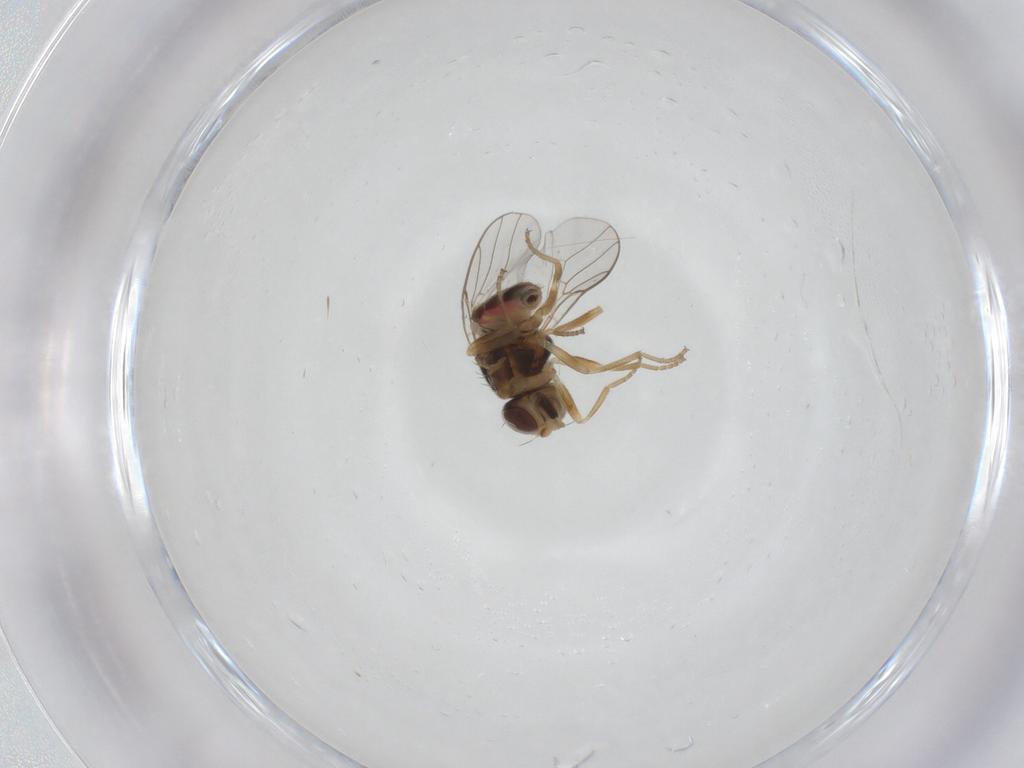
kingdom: Animalia
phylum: Arthropoda
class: Insecta
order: Diptera
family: Chloropidae
